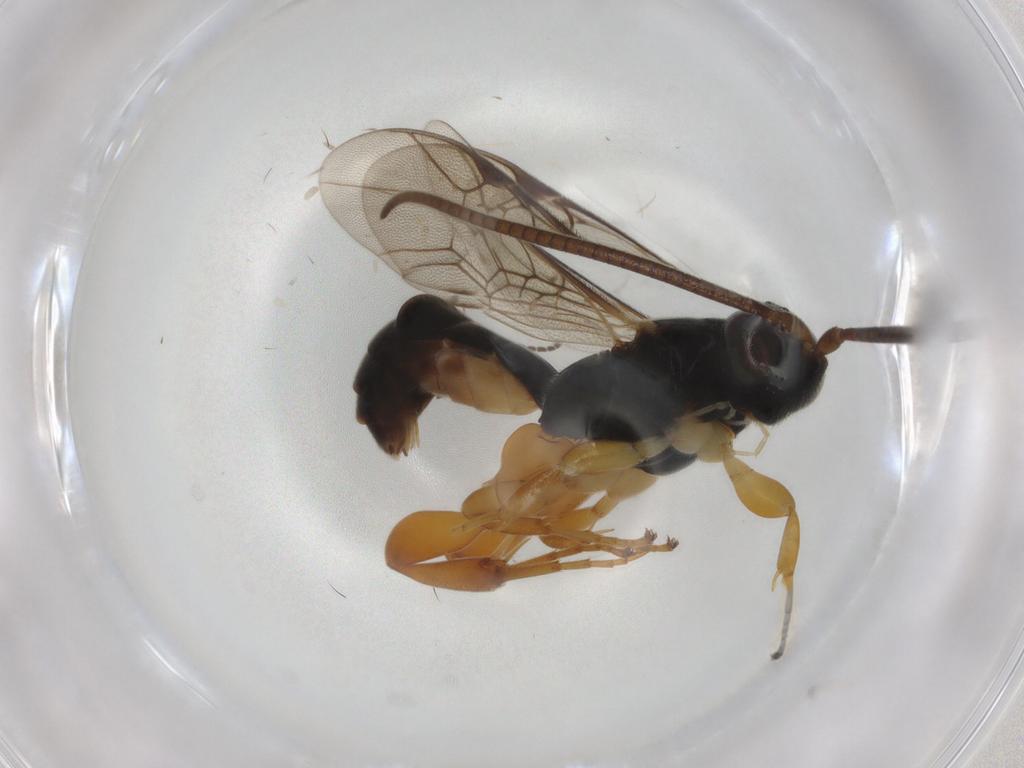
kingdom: Animalia
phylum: Arthropoda
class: Insecta
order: Hymenoptera
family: Ichneumonidae
